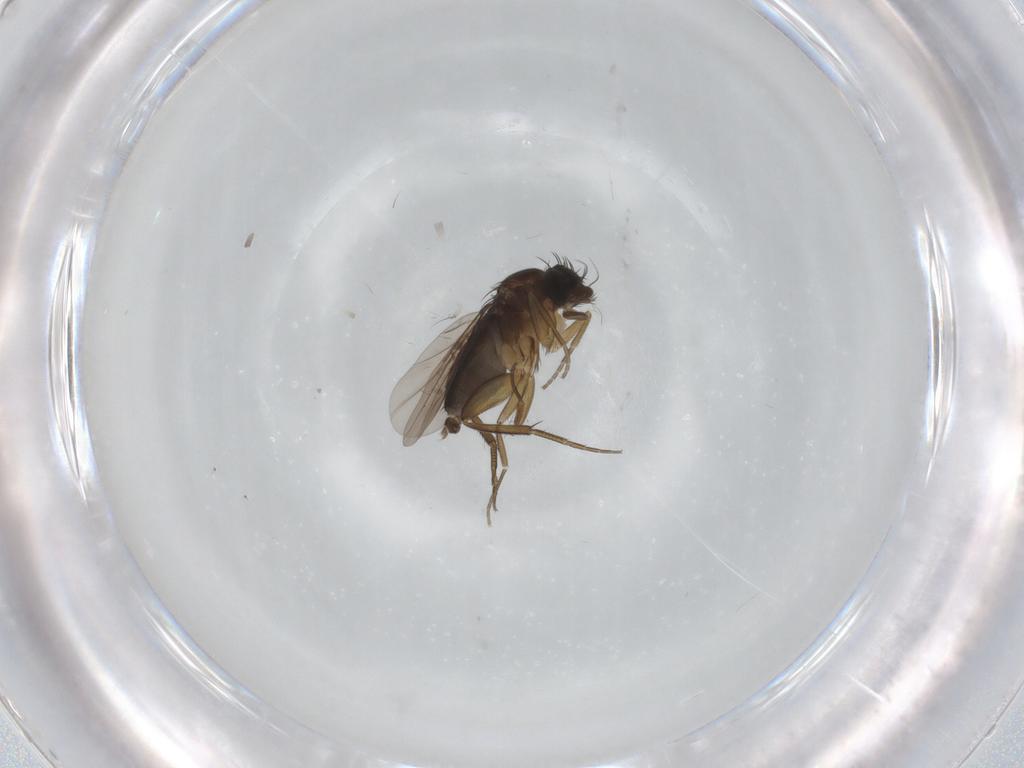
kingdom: Animalia
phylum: Arthropoda
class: Insecta
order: Diptera
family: Phoridae
